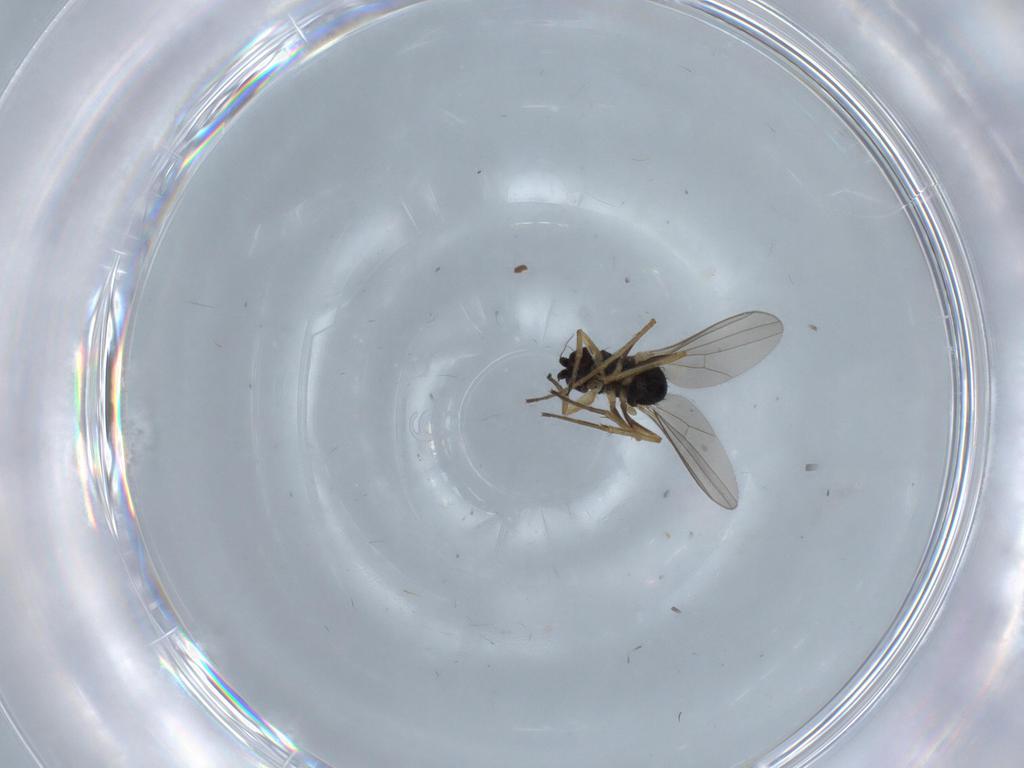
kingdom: Animalia
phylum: Arthropoda
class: Insecta
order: Diptera
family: Dolichopodidae
